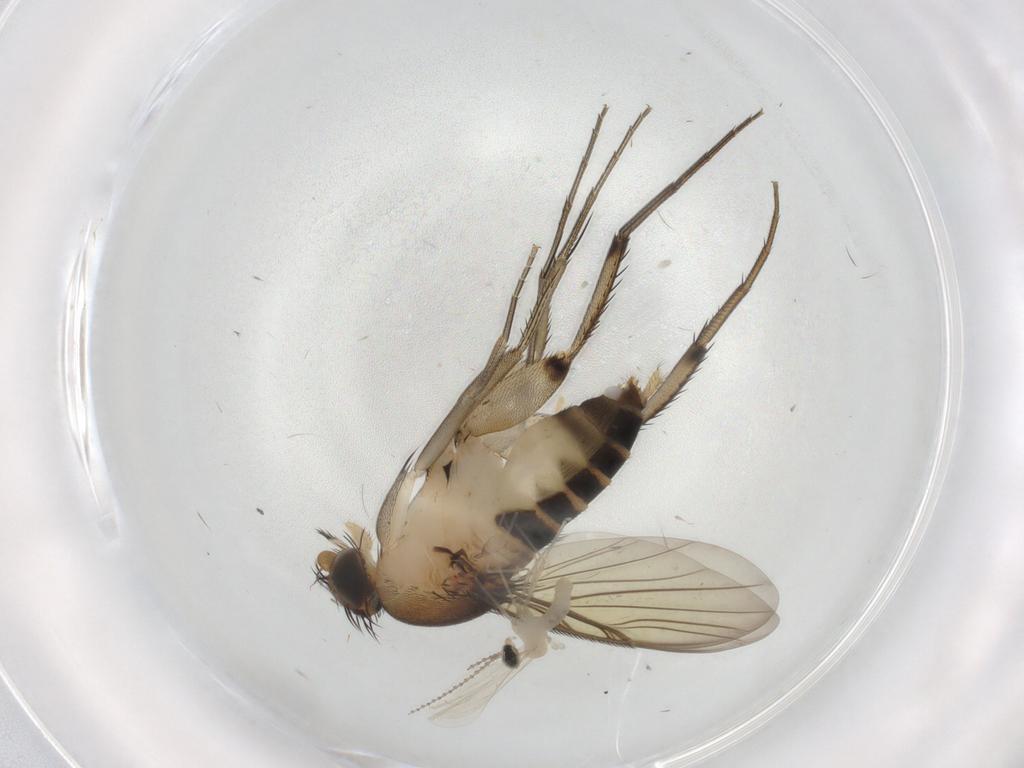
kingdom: Animalia
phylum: Arthropoda
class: Insecta
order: Diptera
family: Phoridae
